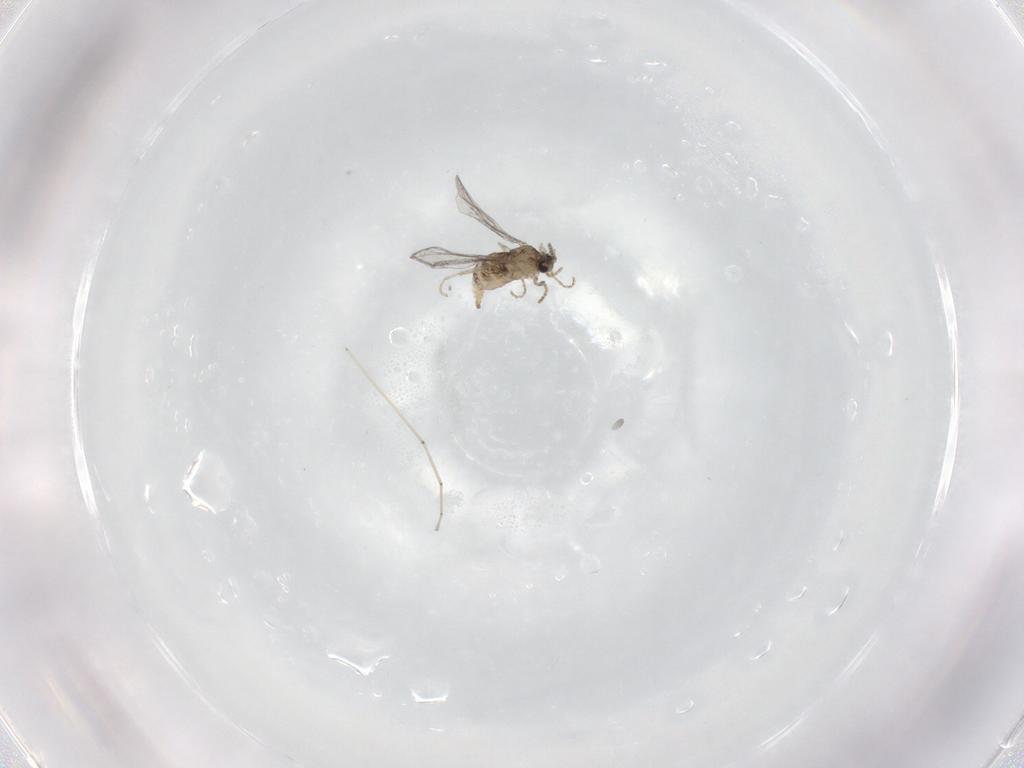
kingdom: Animalia
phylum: Arthropoda
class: Insecta
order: Diptera
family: Cecidomyiidae
